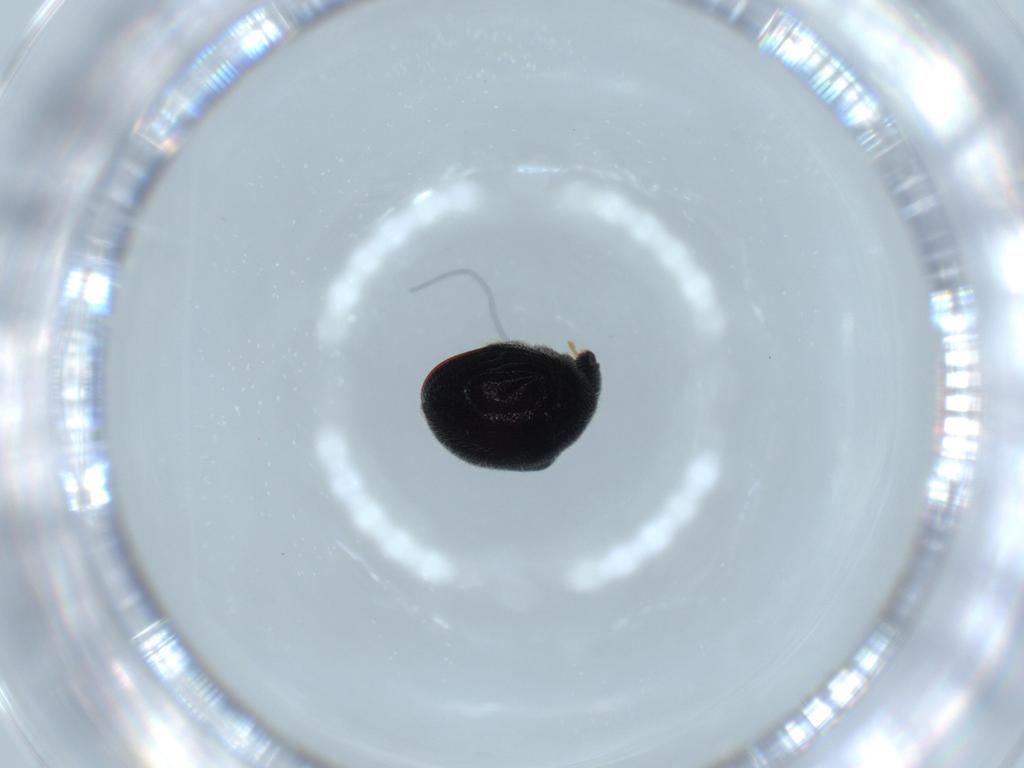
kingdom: Animalia
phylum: Arthropoda
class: Insecta
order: Coleoptera
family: Ptinidae
